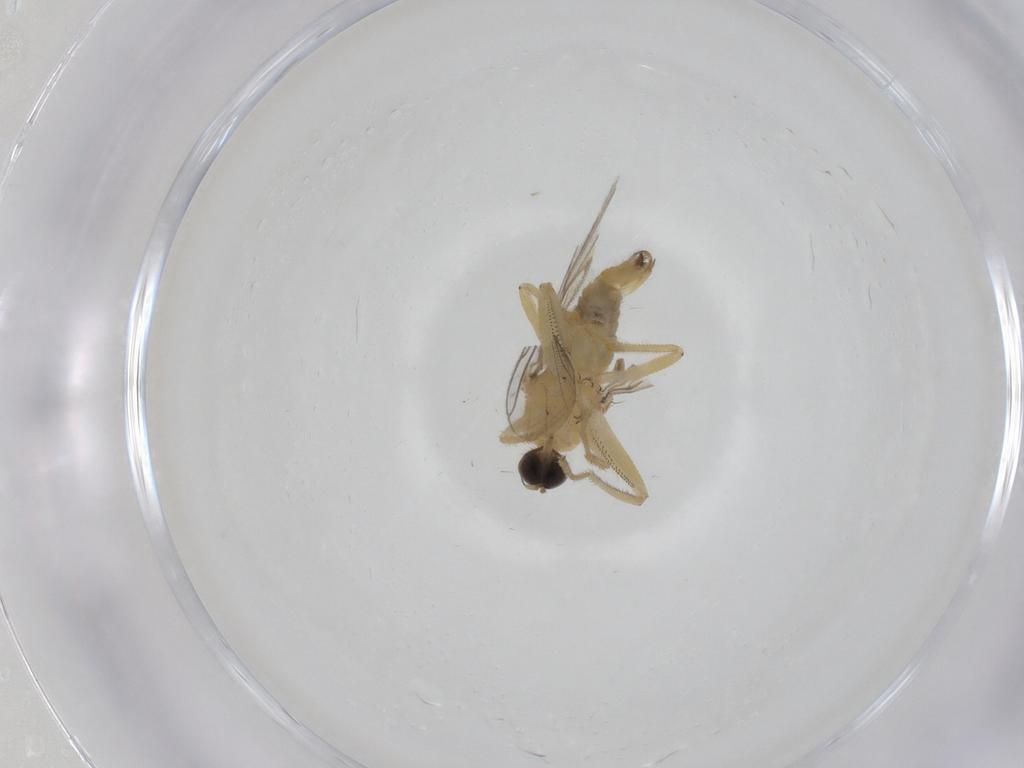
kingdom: Animalia
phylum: Arthropoda
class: Insecta
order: Diptera
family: Hybotidae
